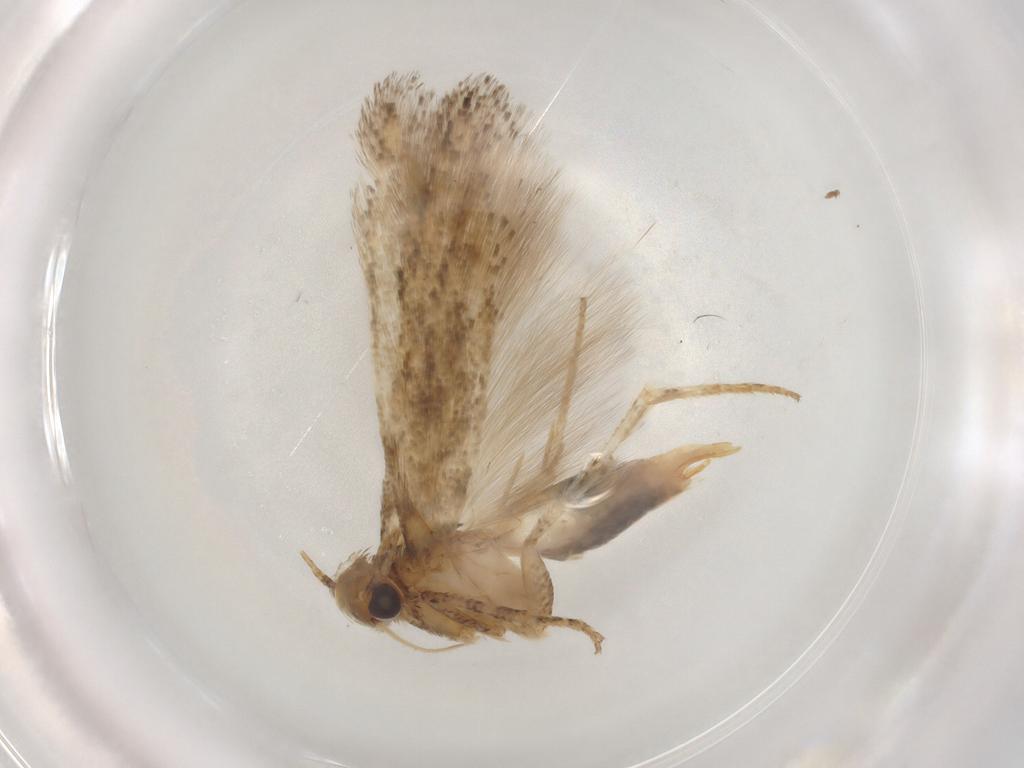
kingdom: Animalia
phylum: Arthropoda
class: Insecta
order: Lepidoptera
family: Gelechiidae
